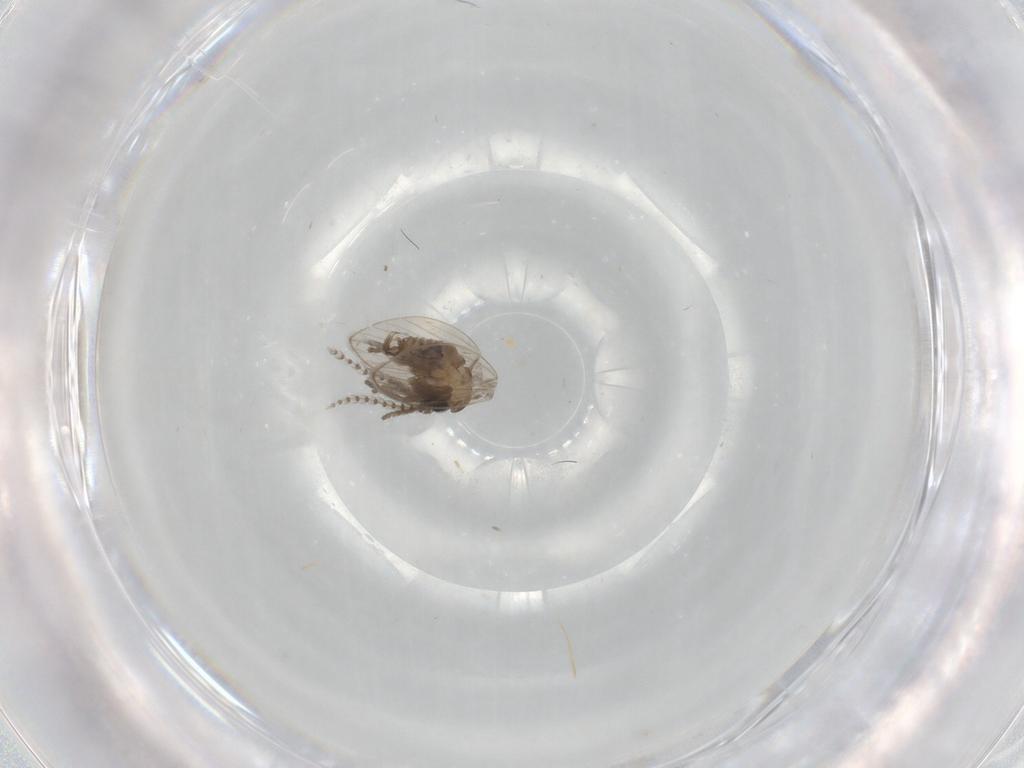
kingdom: Animalia
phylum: Arthropoda
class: Insecta
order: Diptera
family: Psychodidae
